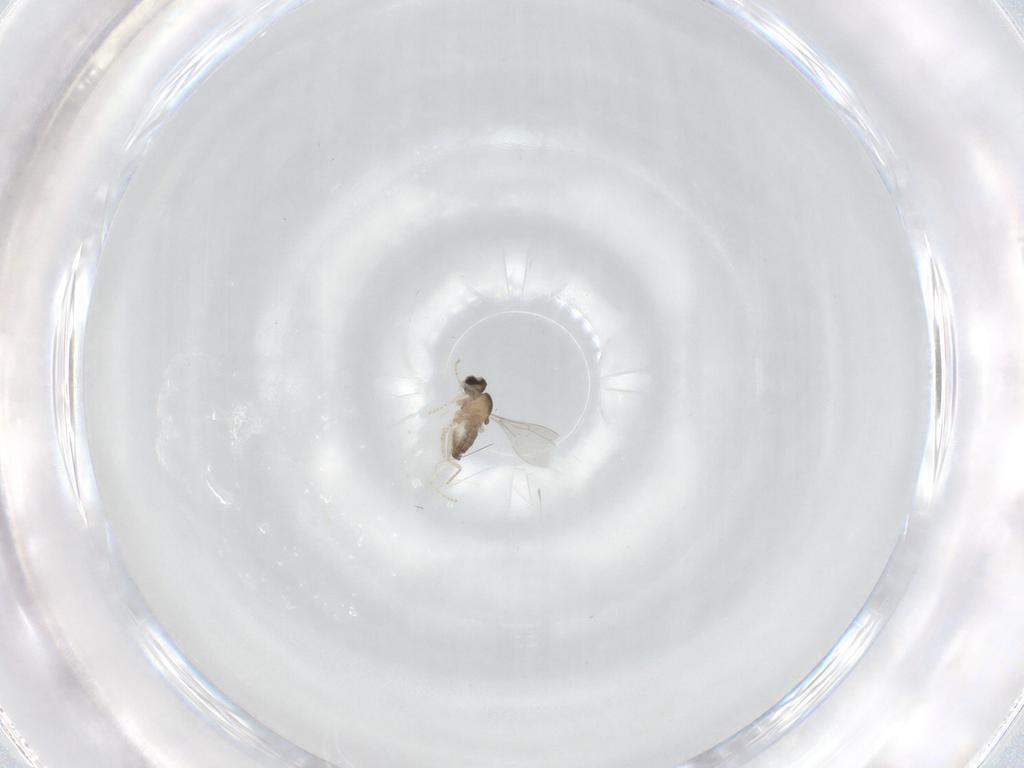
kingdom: Animalia
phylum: Arthropoda
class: Insecta
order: Diptera
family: Cecidomyiidae
